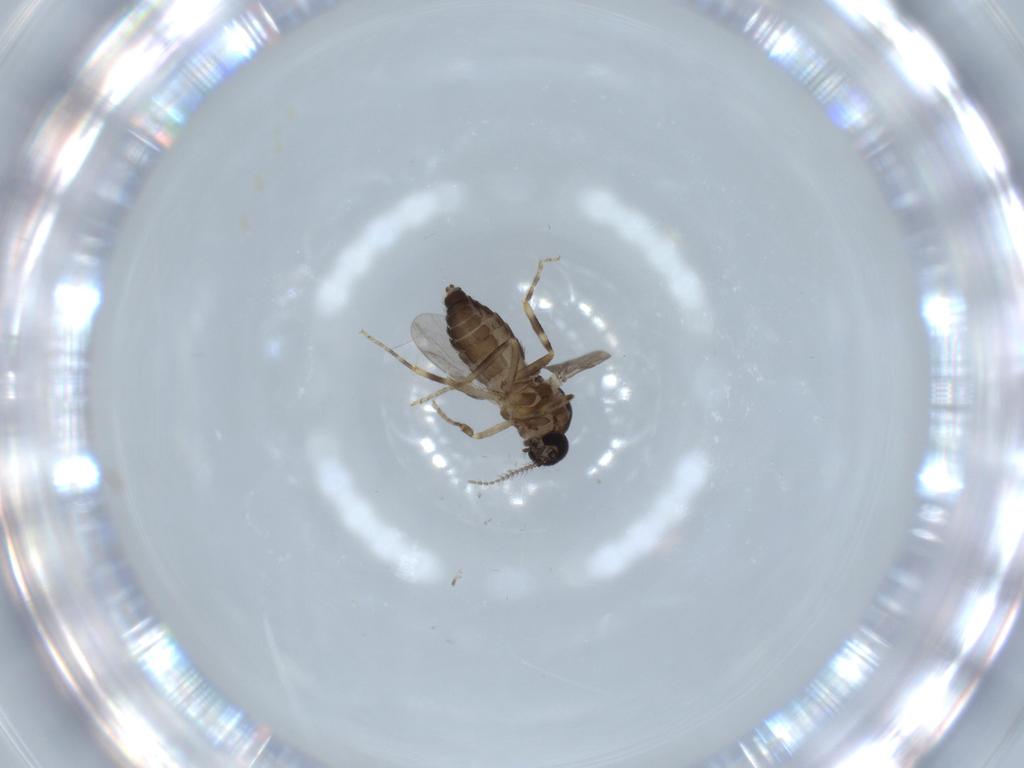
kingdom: Animalia
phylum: Arthropoda
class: Insecta
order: Diptera
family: Ceratopogonidae
